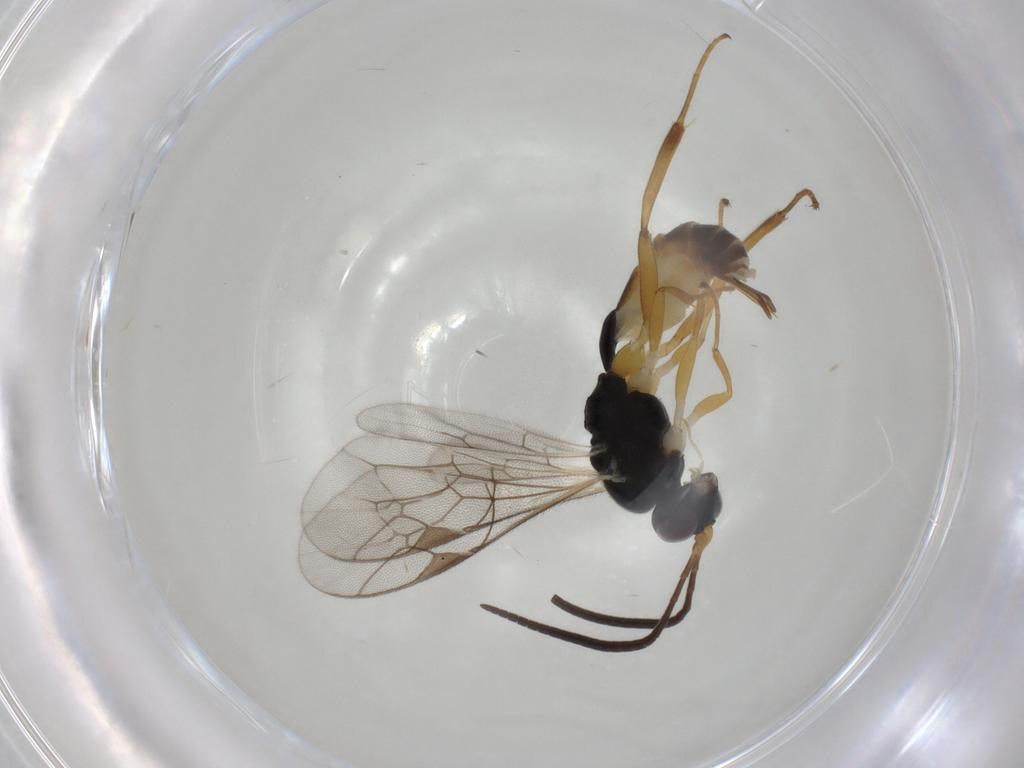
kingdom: Animalia
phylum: Arthropoda
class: Insecta
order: Hymenoptera
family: Ichneumonidae
